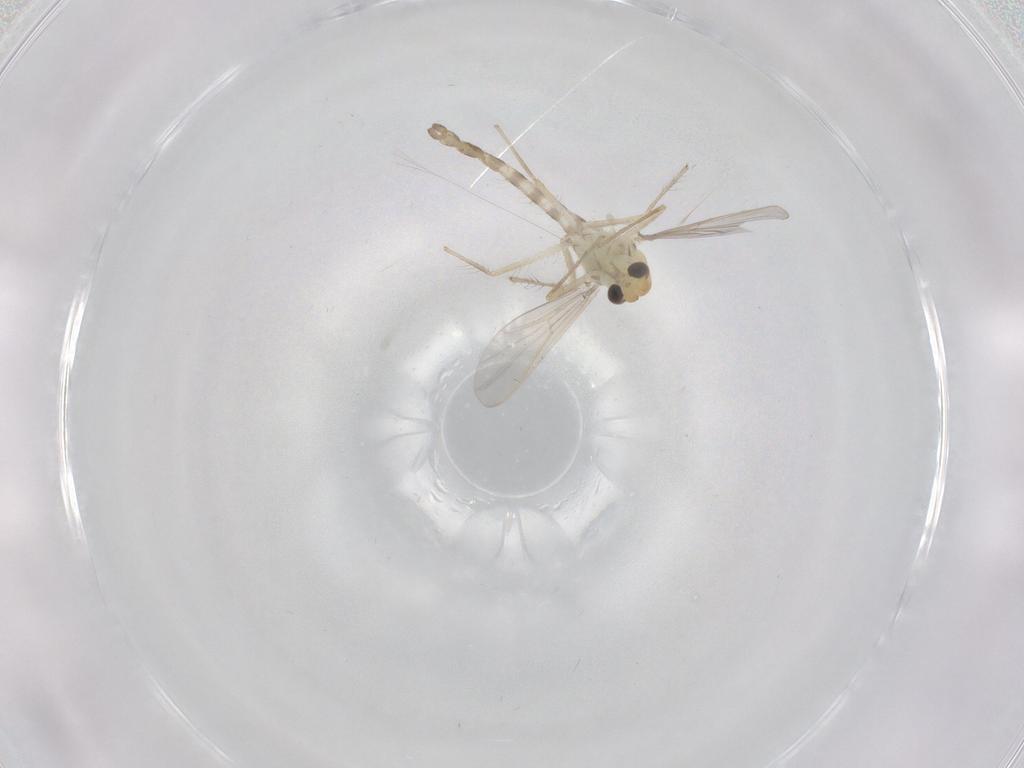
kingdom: Animalia
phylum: Arthropoda
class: Insecta
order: Diptera
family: Chironomidae
